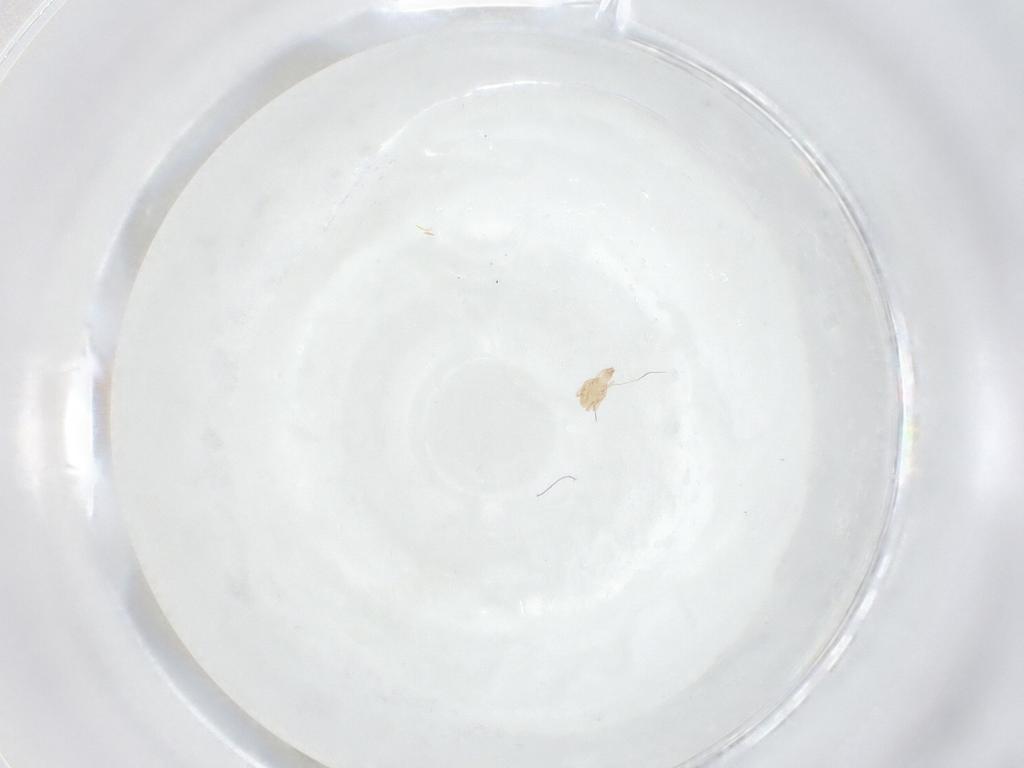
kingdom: Animalia
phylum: Arthropoda
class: Arachnida
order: Trombidiformes
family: Cunaxidae
